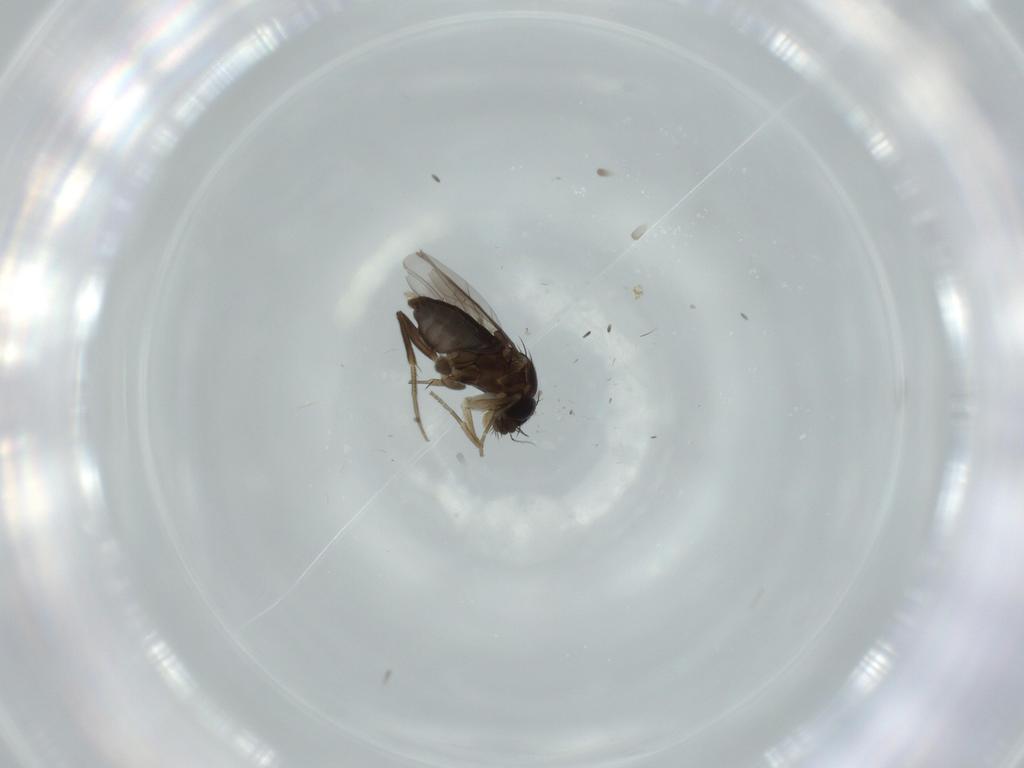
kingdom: Animalia
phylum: Arthropoda
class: Insecta
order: Diptera
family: Phoridae
